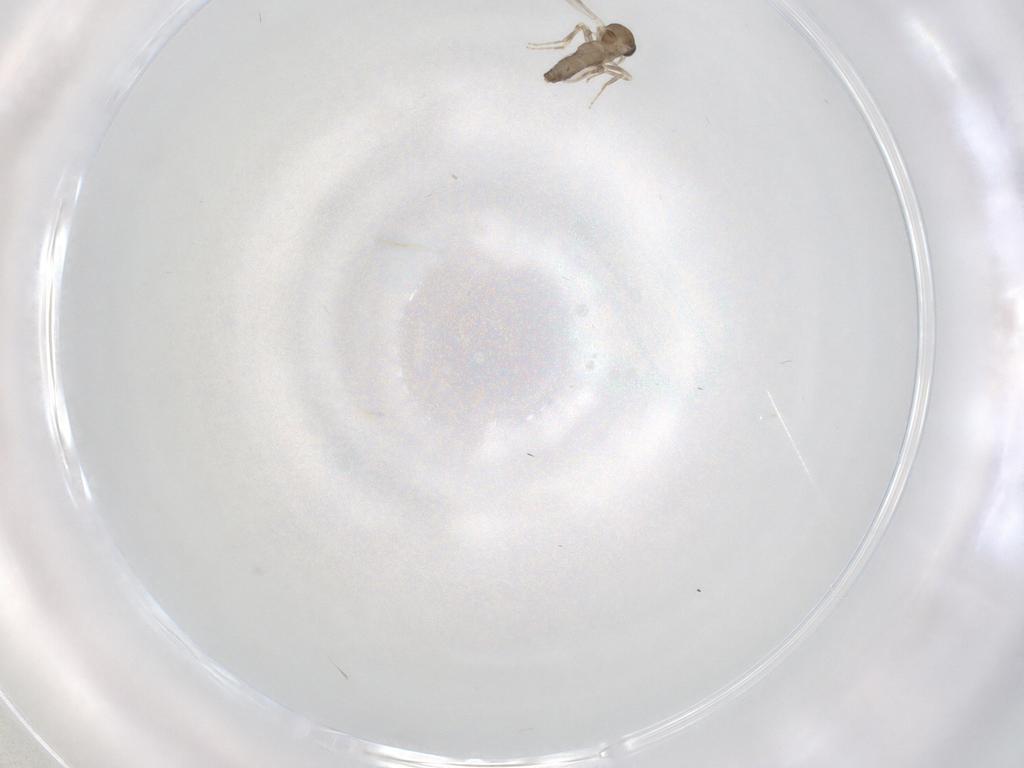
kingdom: Animalia
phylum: Arthropoda
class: Insecta
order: Diptera
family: Ceratopogonidae
